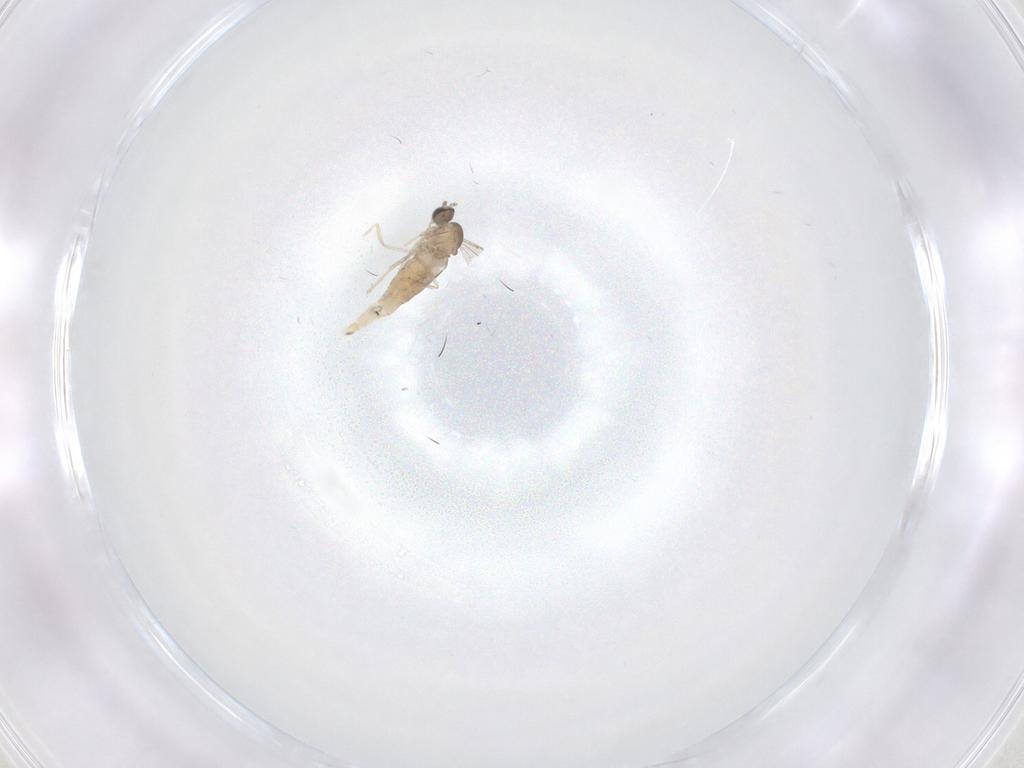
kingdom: Animalia
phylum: Arthropoda
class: Insecta
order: Diptera
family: Cecidomyiidae
